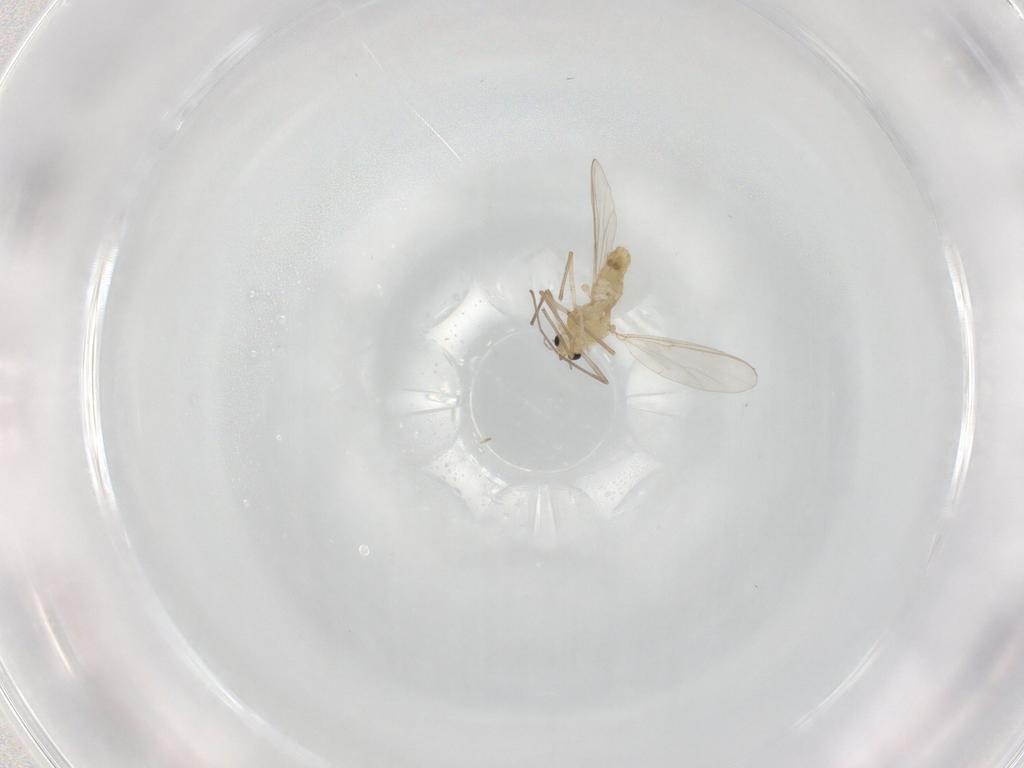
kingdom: Animalia
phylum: Arthropoda
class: Insecta
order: Diptera
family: Chironomidae
